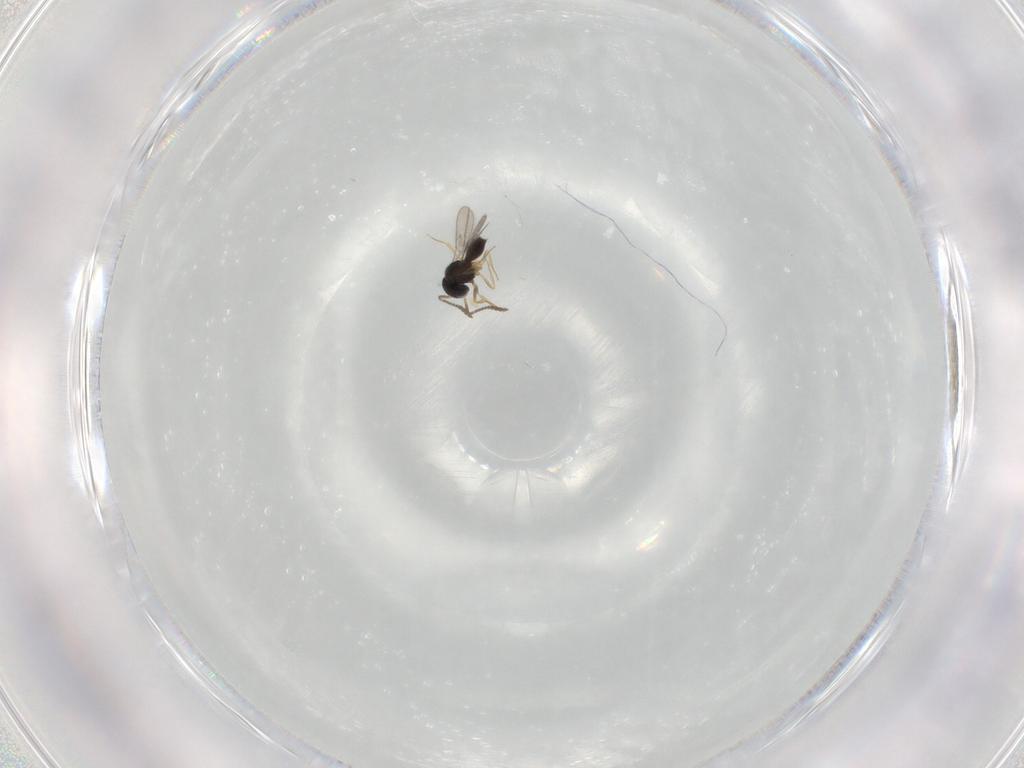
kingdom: Animalia
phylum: Arthropoda
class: Insecta
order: Hymenoptera
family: Scelionidae
